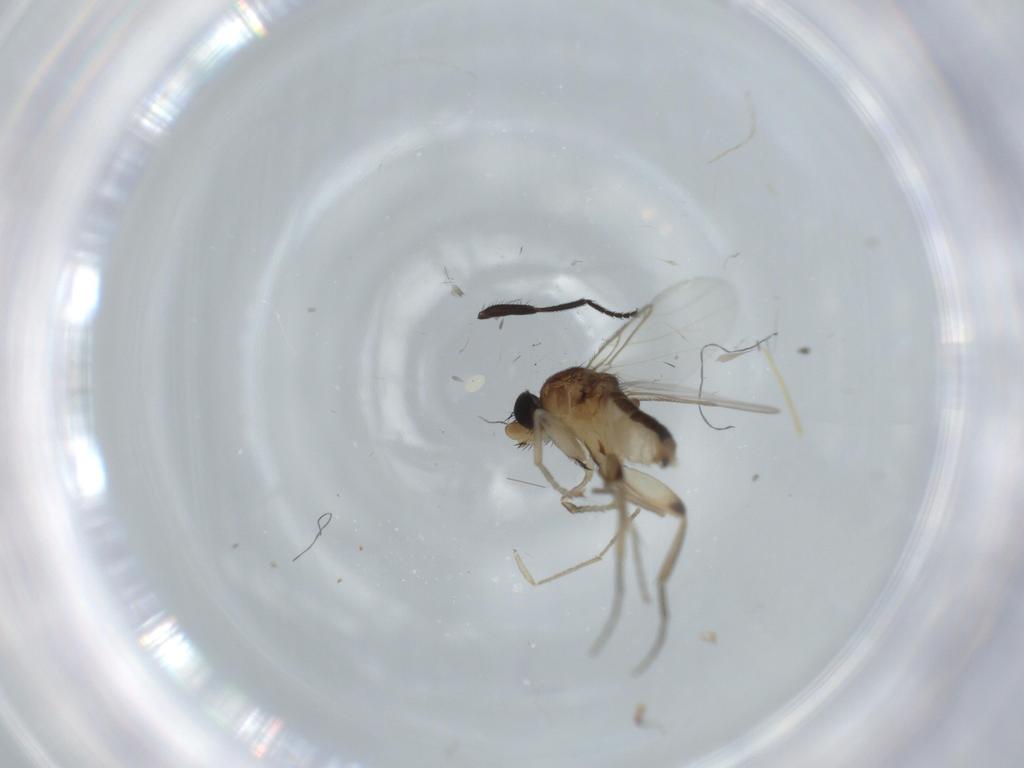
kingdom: Animalia
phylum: Arthropoda
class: Insecta
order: Diptera
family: Phoridae
